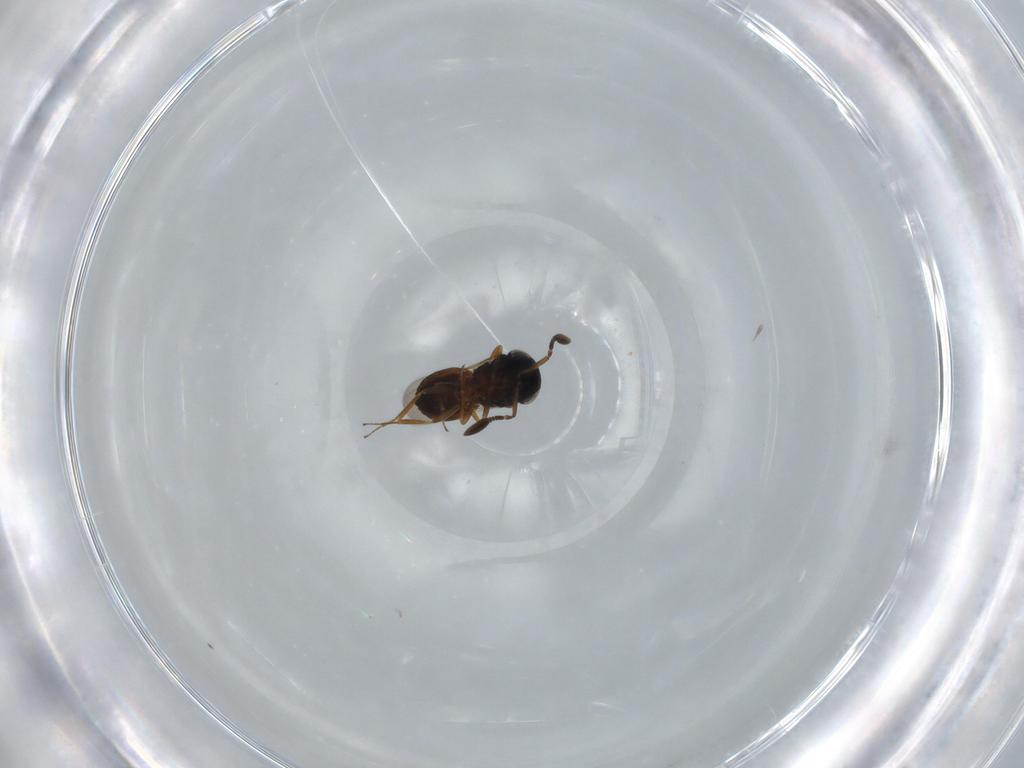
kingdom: Animalia
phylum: Arthropoda
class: Insecta
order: Hymenoptera
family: Scelionidae
